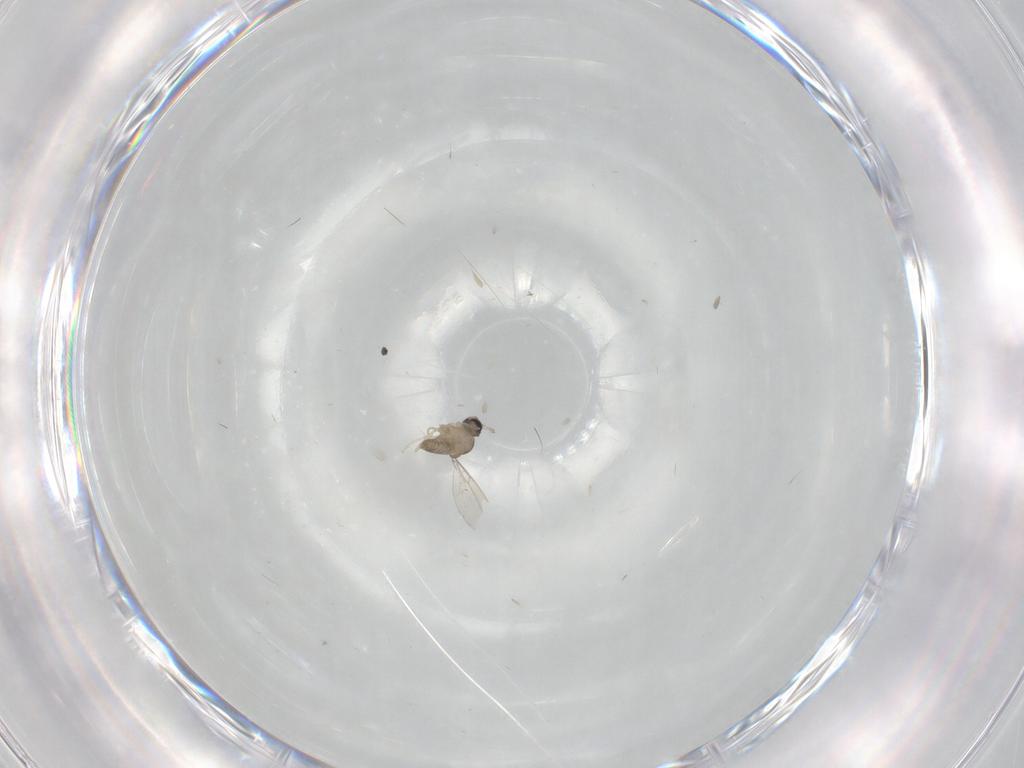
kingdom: Animalia
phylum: Arthropoda
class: Insecta
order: Diptera
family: Cecidomyiidae
